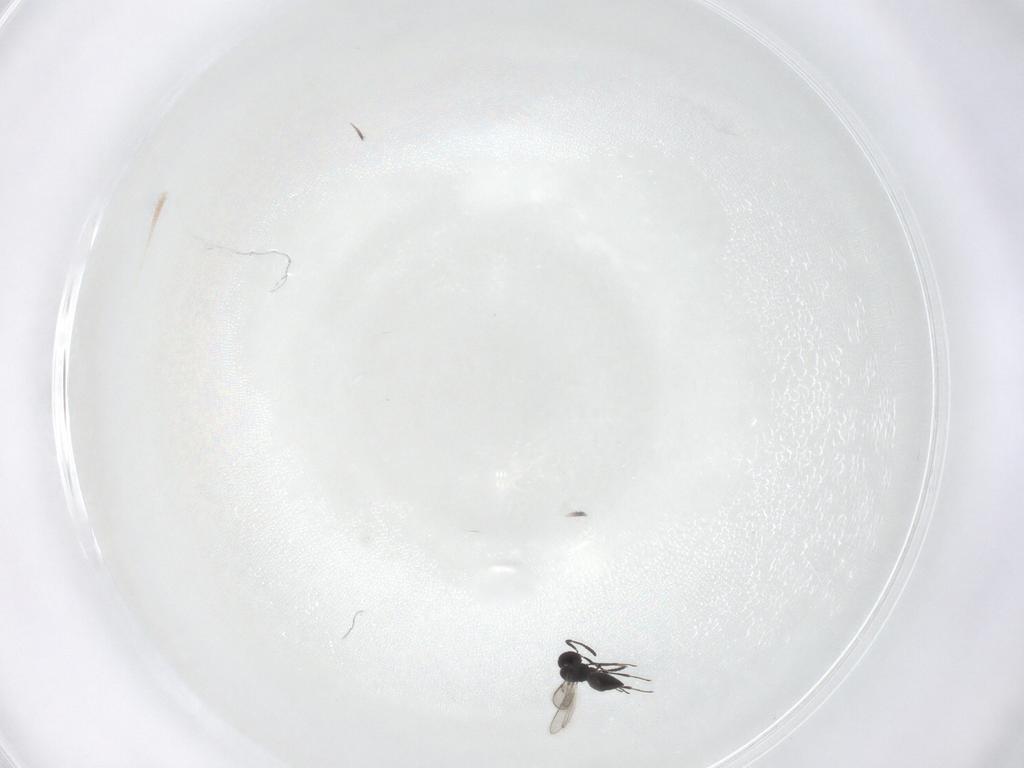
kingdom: Animalia
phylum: Arthropoda
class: Insecta
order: Hymenoptera
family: Scelionidae
